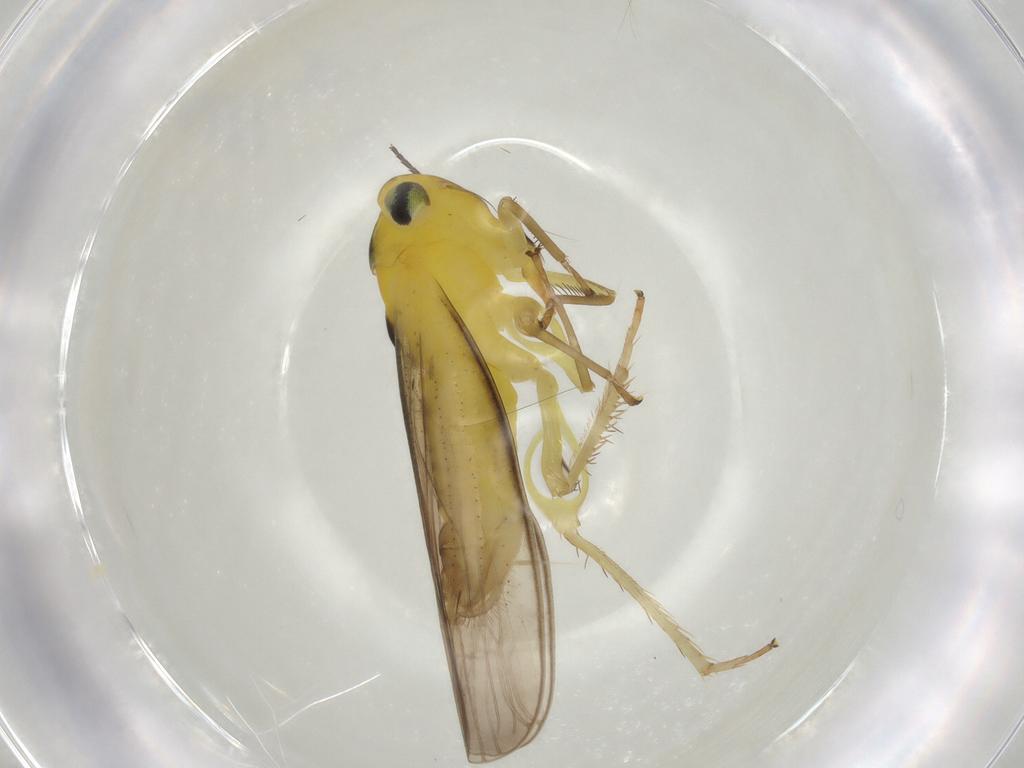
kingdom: Animalia
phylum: Arthropoda
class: Insecta
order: Hemiptera
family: Cicadellidae
